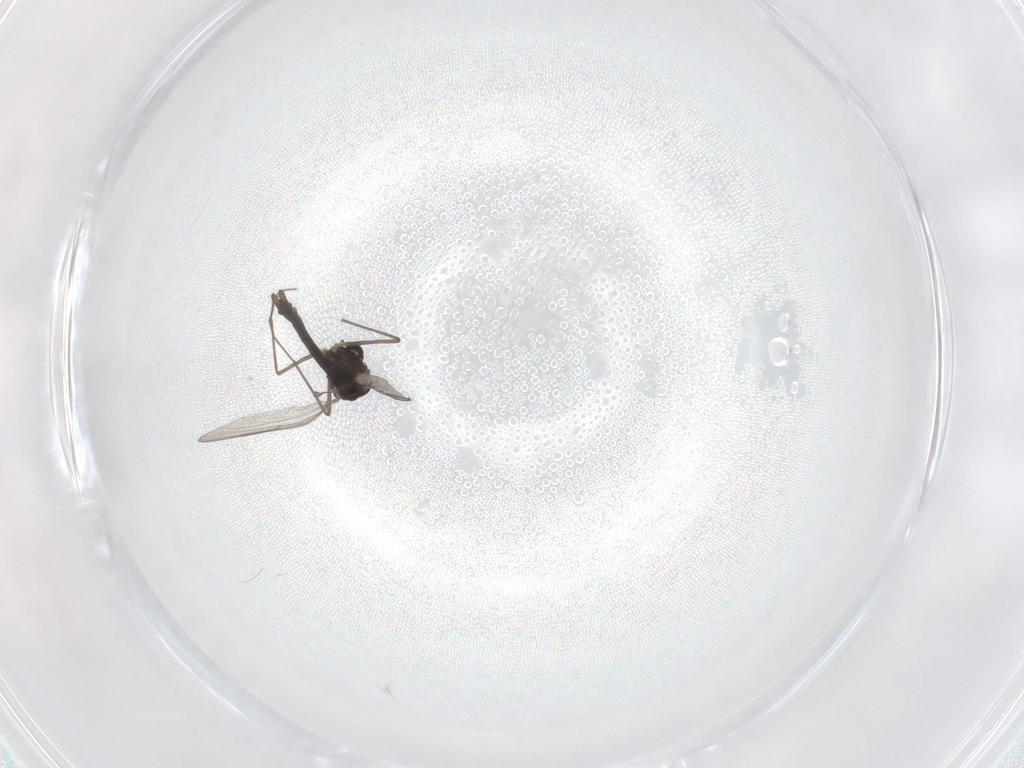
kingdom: Animalia
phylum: Arthropoda
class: Insecta
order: Diptera
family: Chironomidae
